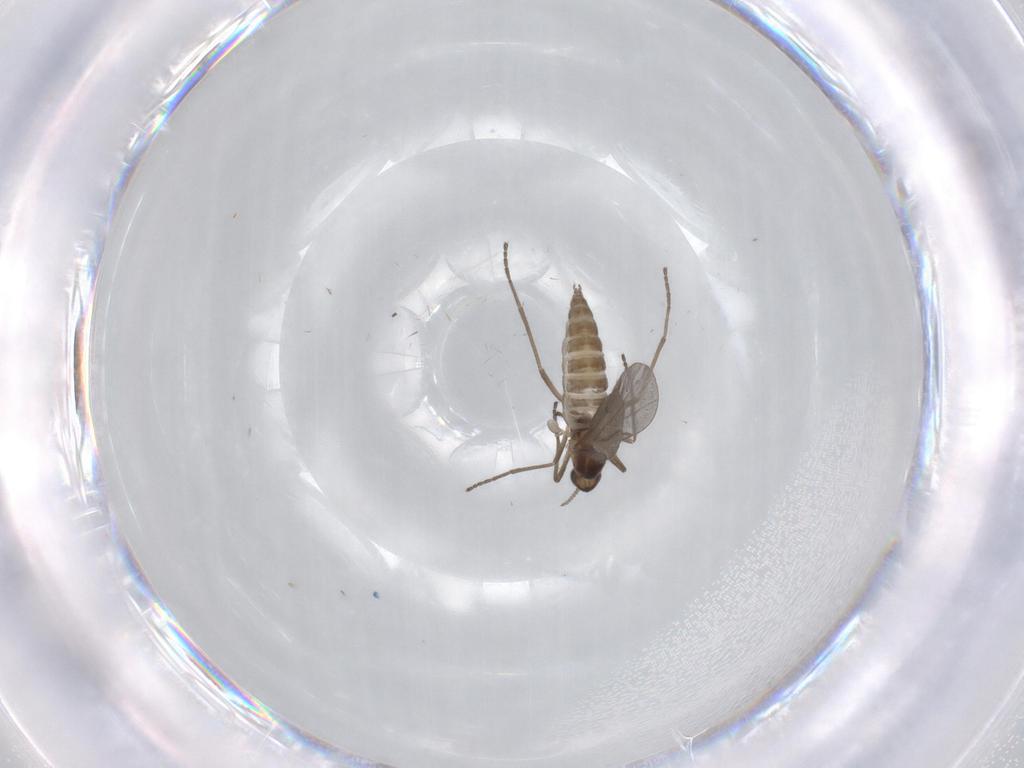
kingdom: Animalia
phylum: Arthropoda
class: Insecta
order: Diptera
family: Cecidomyiidae
